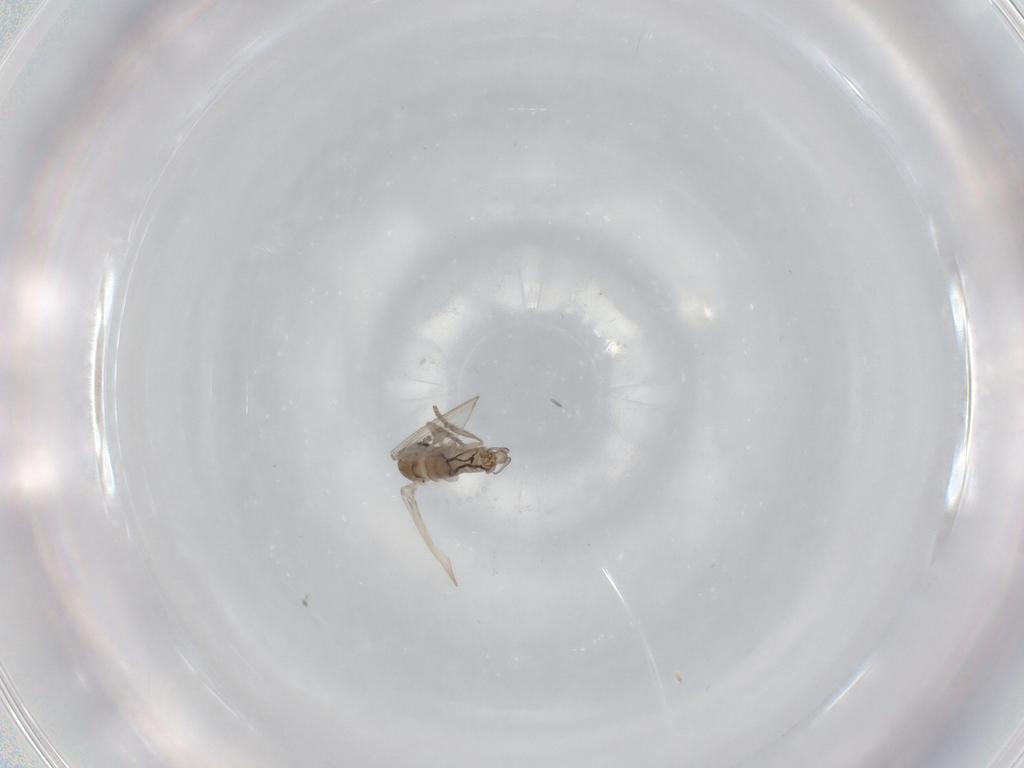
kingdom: Animalia
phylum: Arthropoda
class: Insecta
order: Diptera
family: Psychodidae
